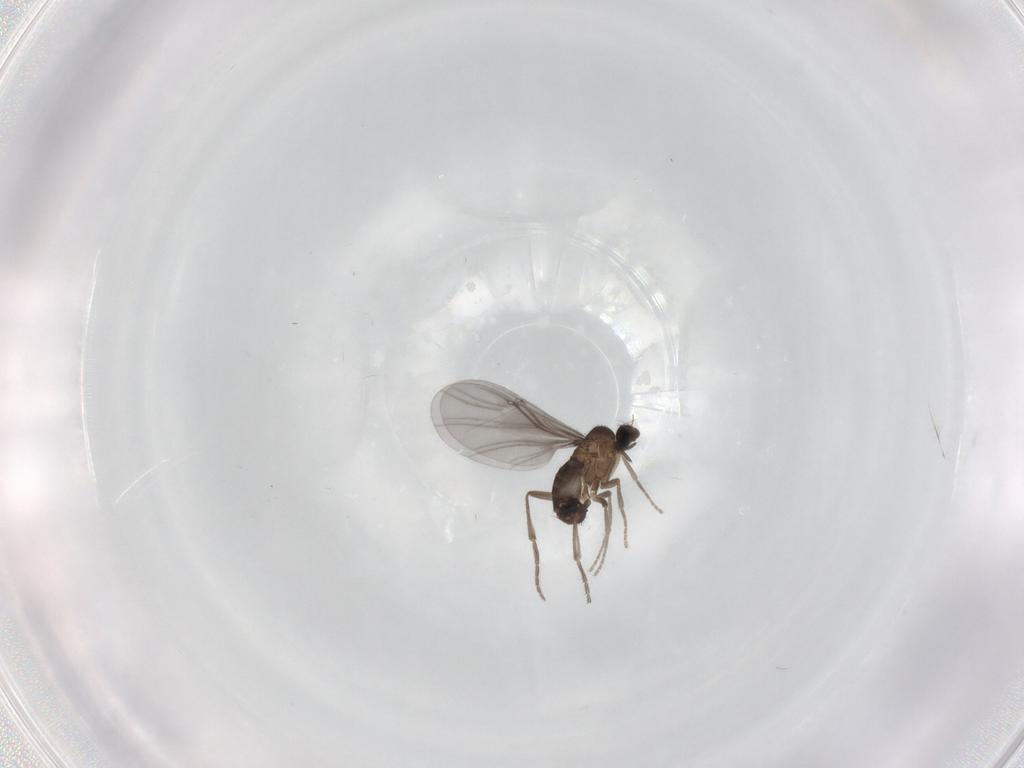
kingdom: Animalia
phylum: Arthropoda
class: Insecta
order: Diptera
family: Phoridae
